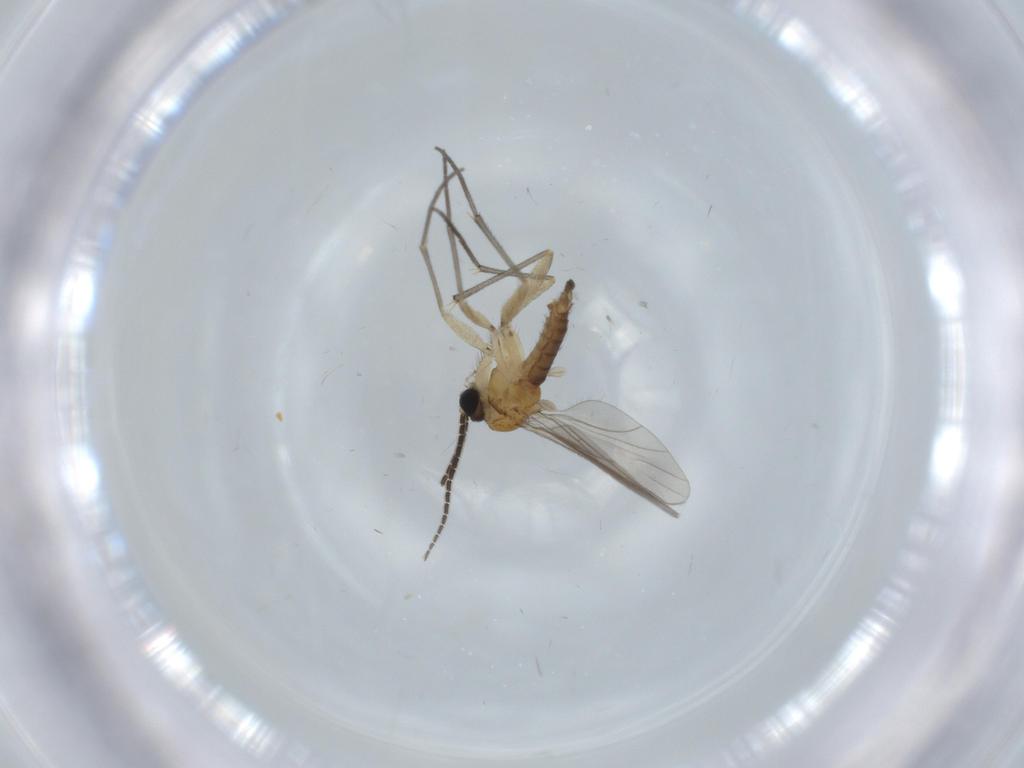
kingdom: Animalia
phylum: Arthropoda
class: Insecta
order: Diptera
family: Sciaridae
